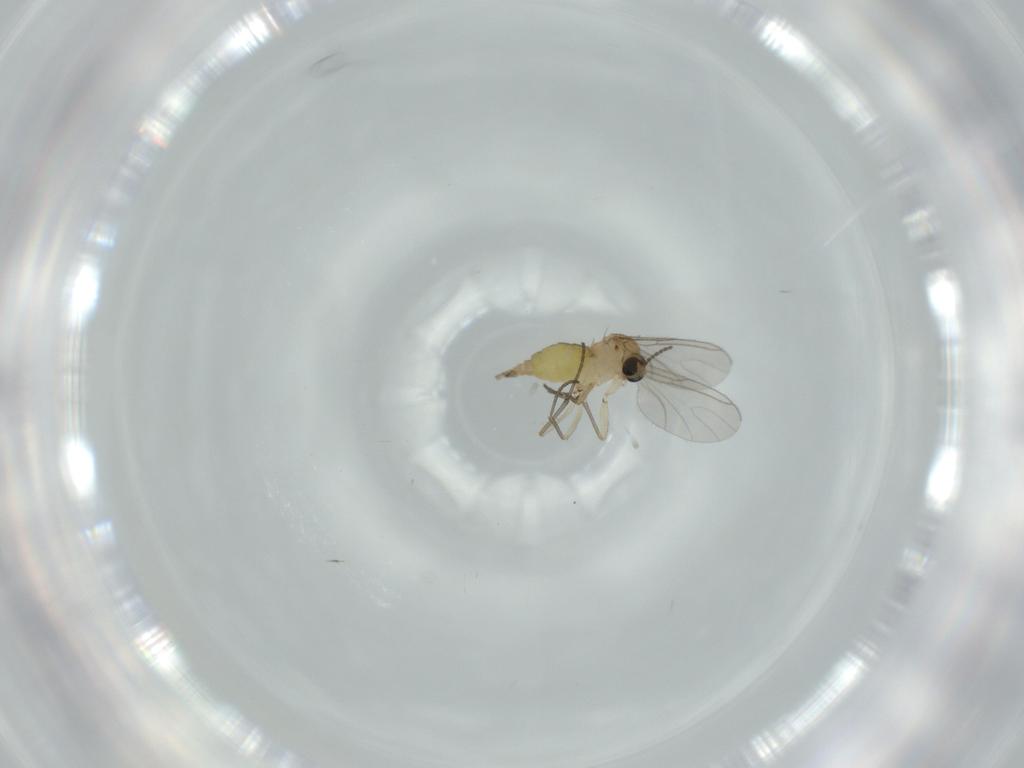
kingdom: Animalia
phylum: Arthropoda
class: Insecta
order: Diptera
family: Sciaridae
